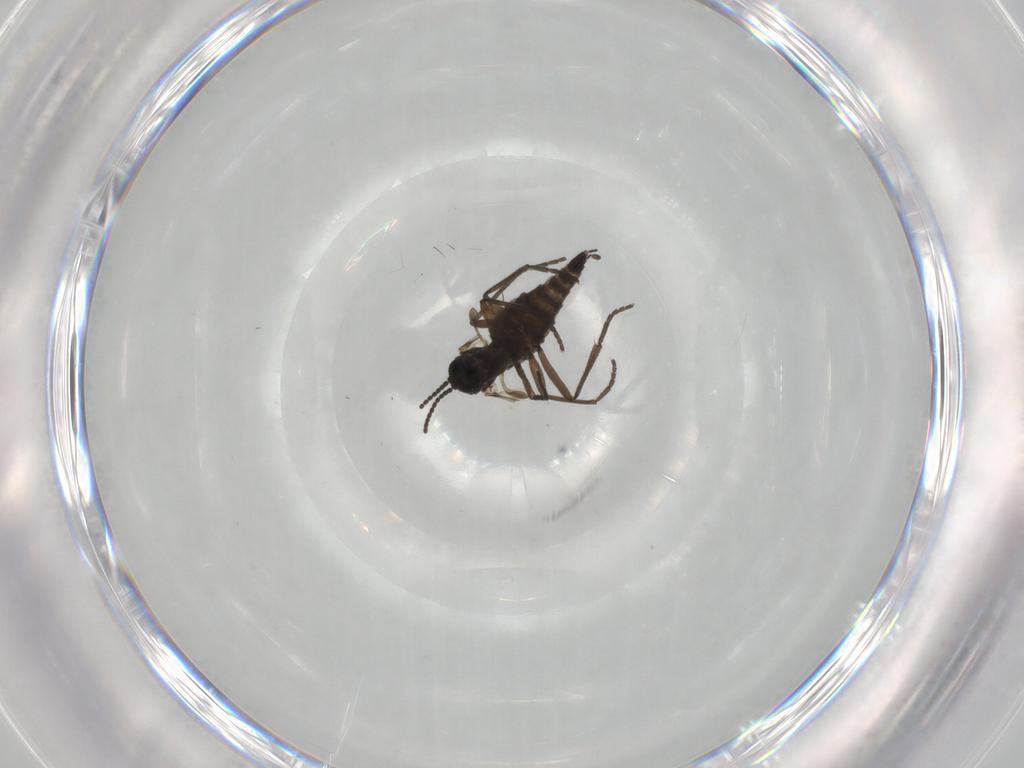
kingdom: Animalia
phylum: Arthropoda
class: Insecta
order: Diptera
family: Sciaridae
